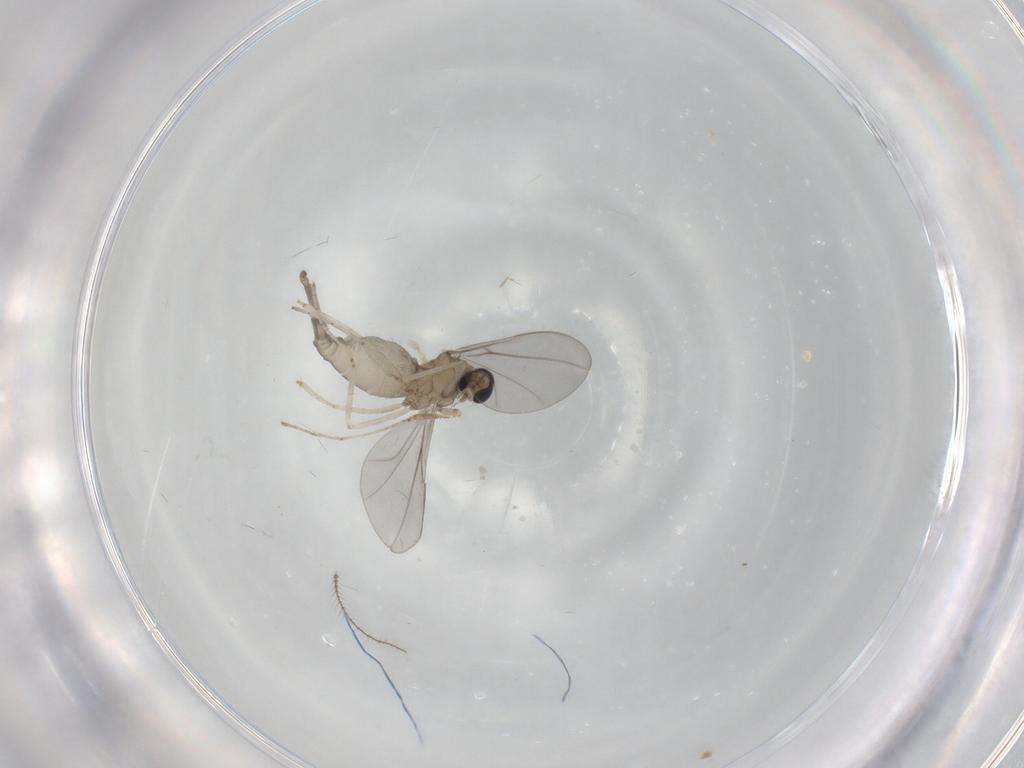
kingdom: Animalia
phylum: Arthropoda
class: Insecta
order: Diptera
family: Cecidomyiidae
